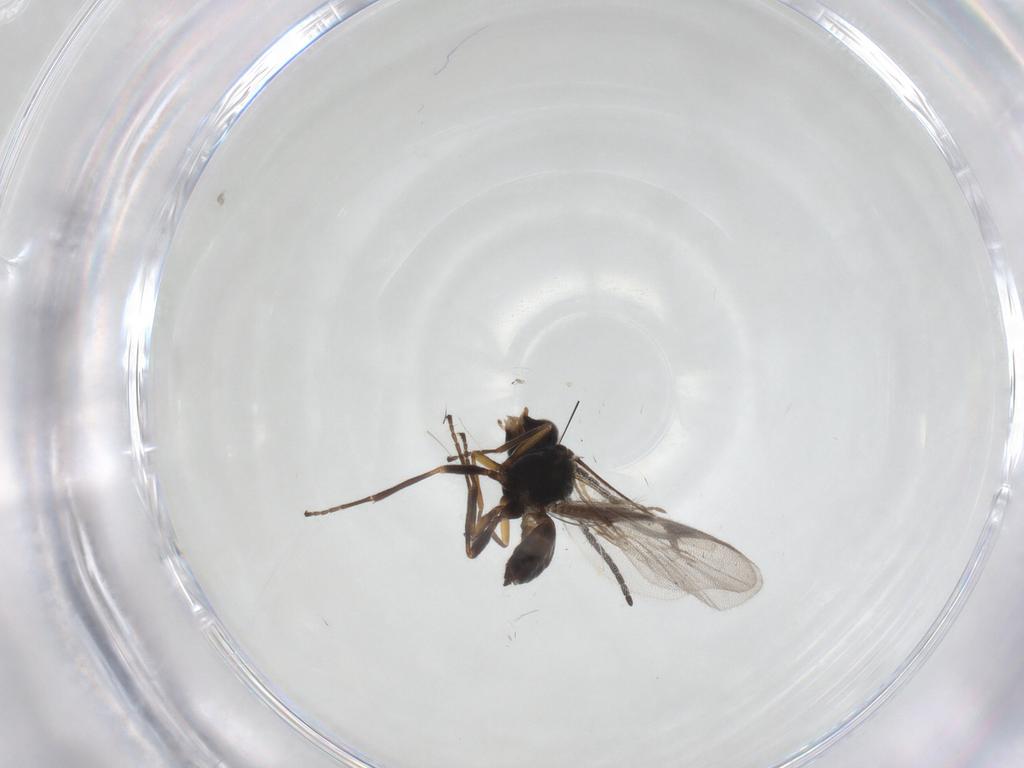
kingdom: Animalia
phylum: Arthropoda
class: Insecta
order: Hymenoptera
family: Braconidae
